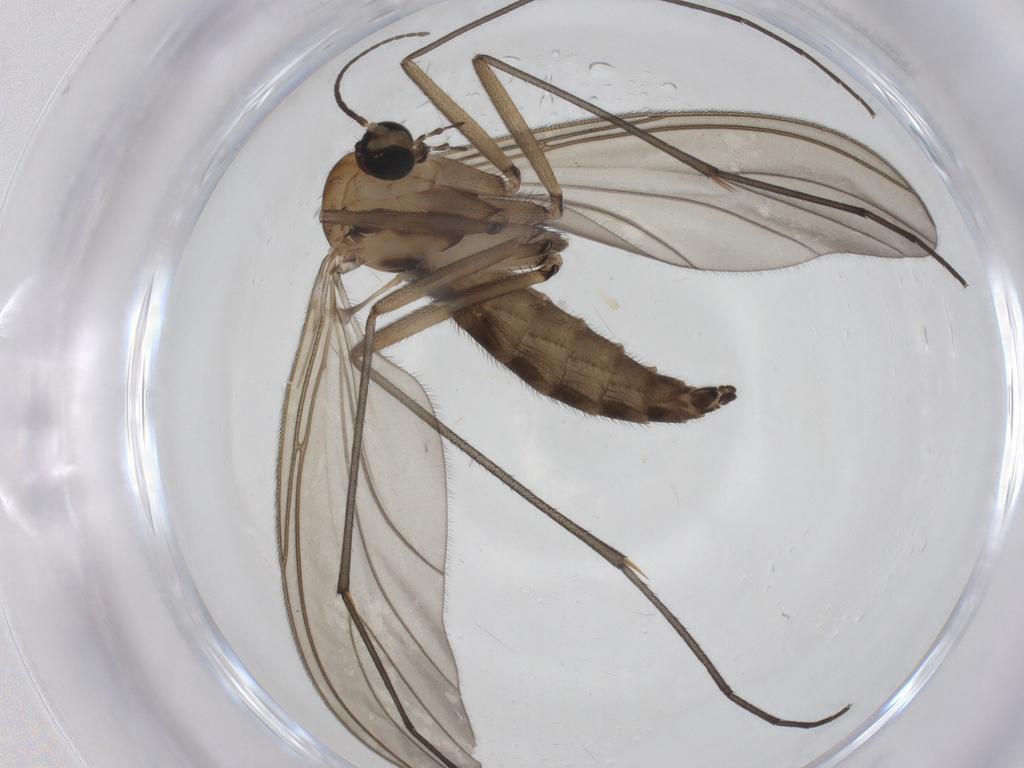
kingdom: Animalia
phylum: Arthropoda
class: Insecta
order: Diptera
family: Sciaridae
